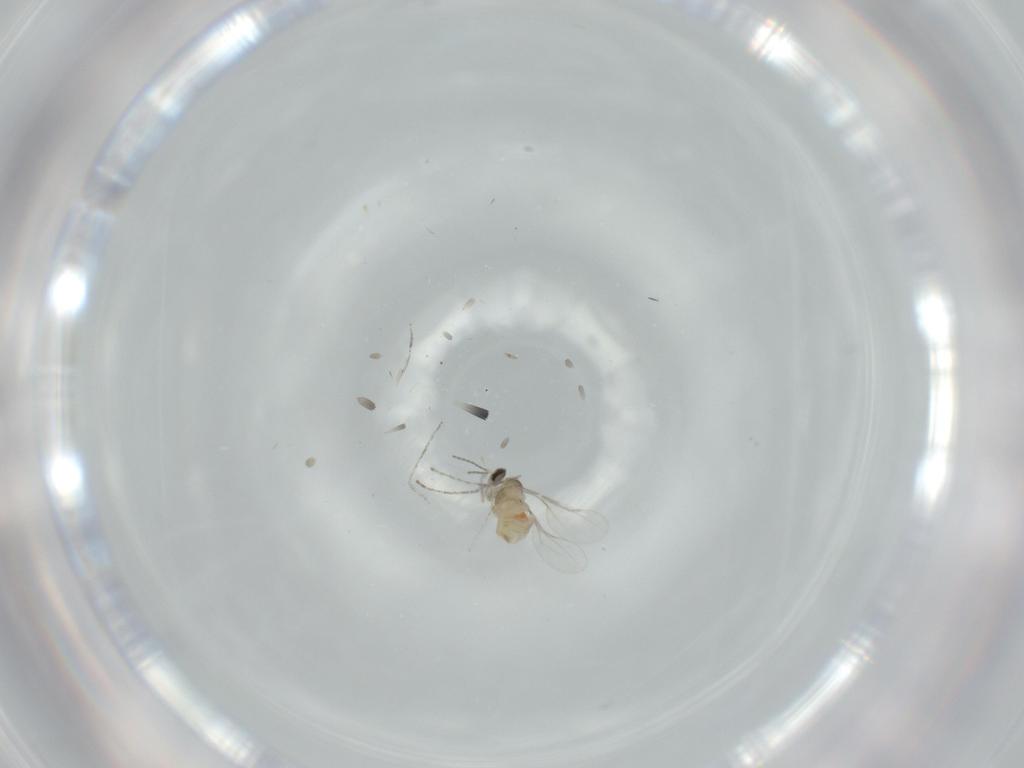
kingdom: Animalia
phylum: Arthropoda
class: Insecta
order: Diptera
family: Cecidomyiidae
